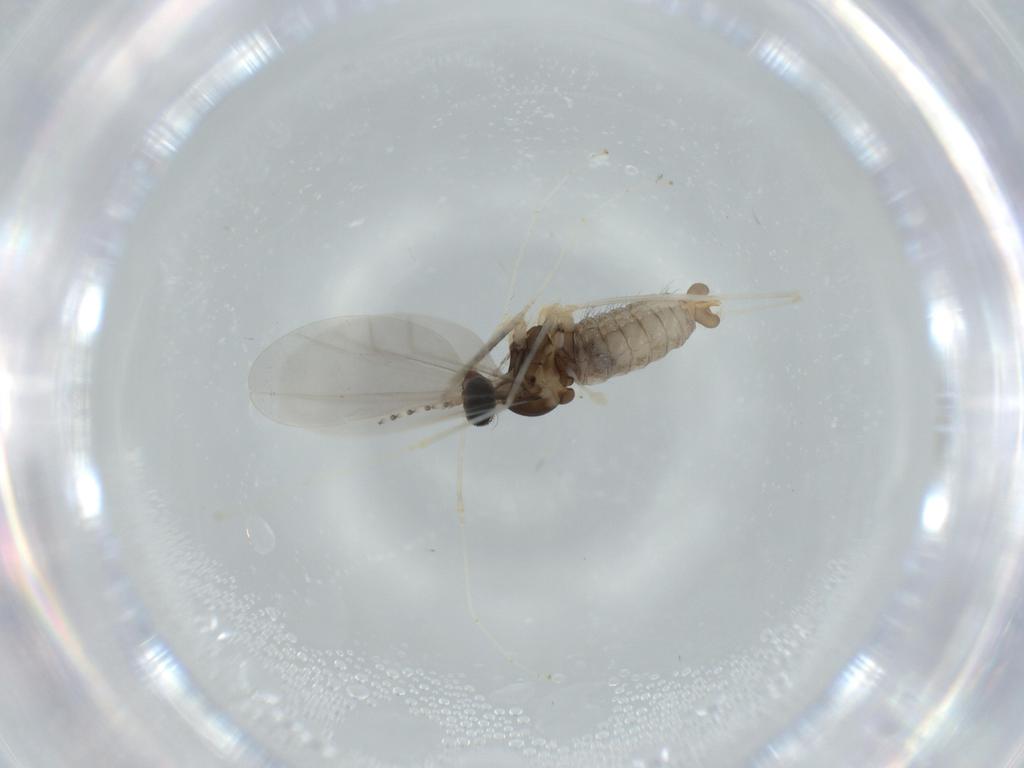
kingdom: Animalia
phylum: Arthropoda
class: Insecta
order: Diptera
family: Cecidomyiidae
